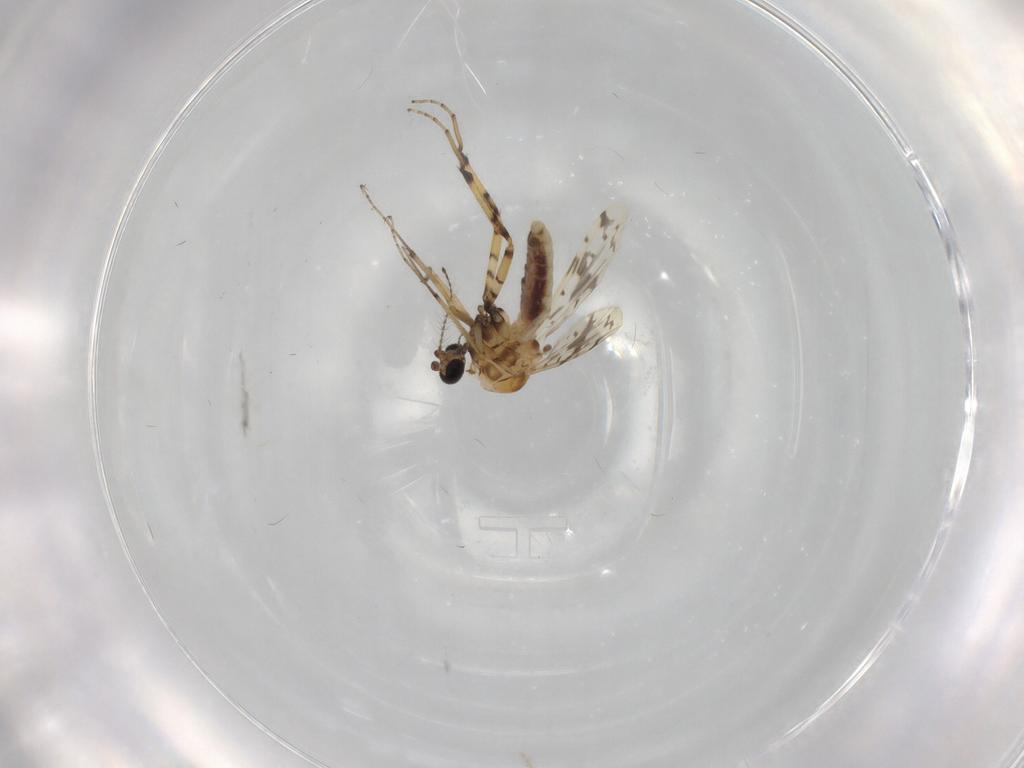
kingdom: Animalia
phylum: Arthropoda
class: Insecta
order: Diptera
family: Ceratopogonidae
